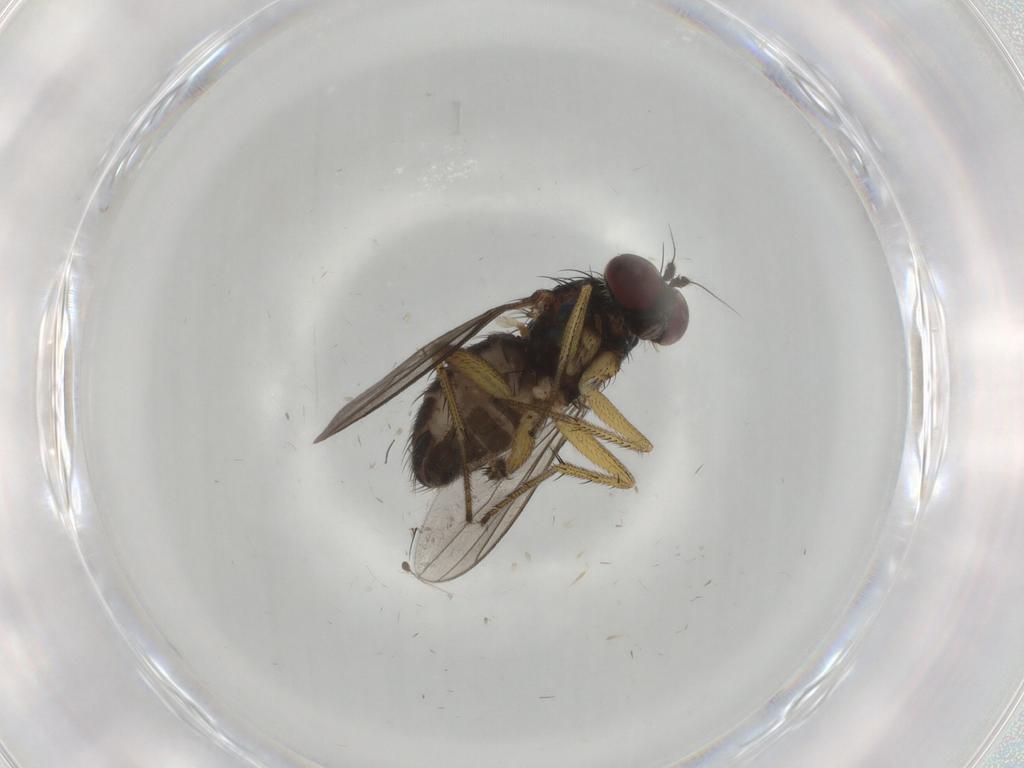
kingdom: Animalia
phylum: Arthropoda
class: Insecta
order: Diptera
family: Dolichopodidae
